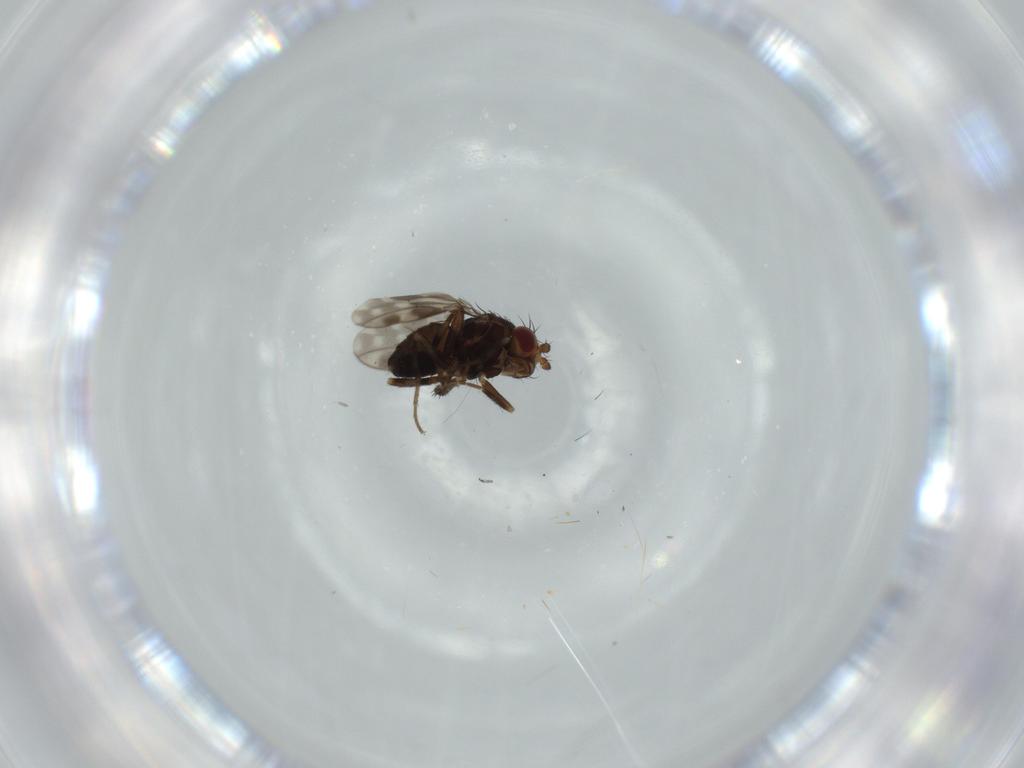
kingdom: Animalia
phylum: Arthropoda
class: Insecta
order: Diptera
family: Sphaeroceridae
